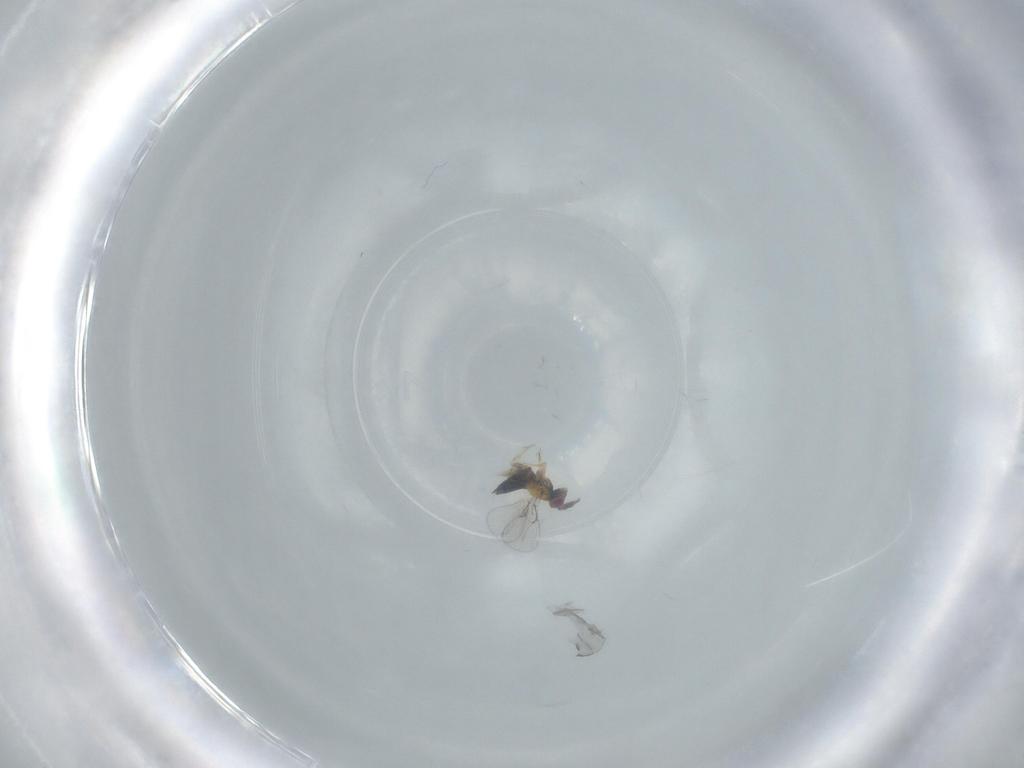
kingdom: Animalia
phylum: Arthropoda
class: Insecta
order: Hymenoptera
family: Trichogrammatidae
